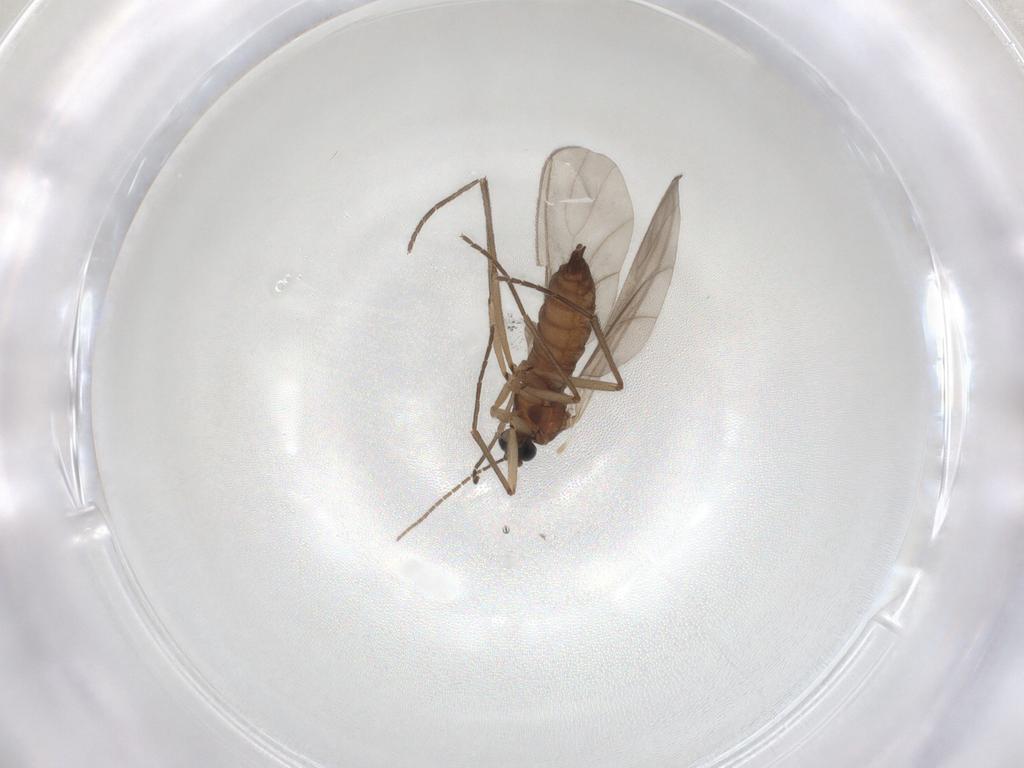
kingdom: Animalia
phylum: Arthropoda
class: Insecta
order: Diptera
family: Sciaridae
